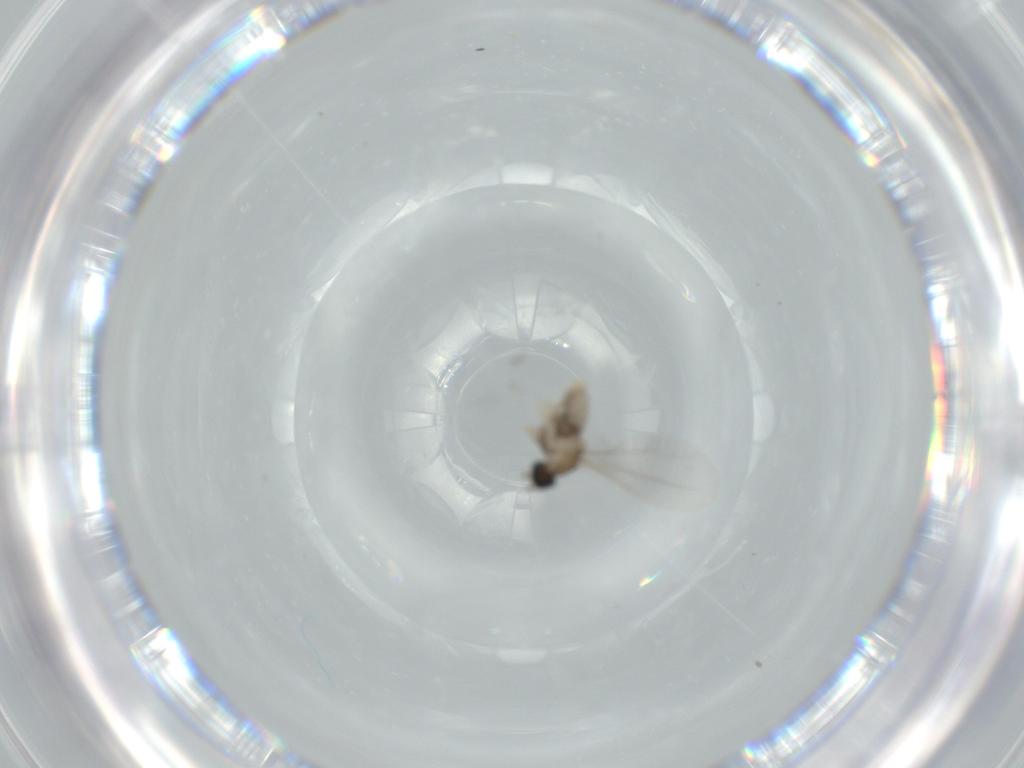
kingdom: Animalia
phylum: Arthropoda
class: Insecta
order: Diptera
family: Cecidomyiidae
